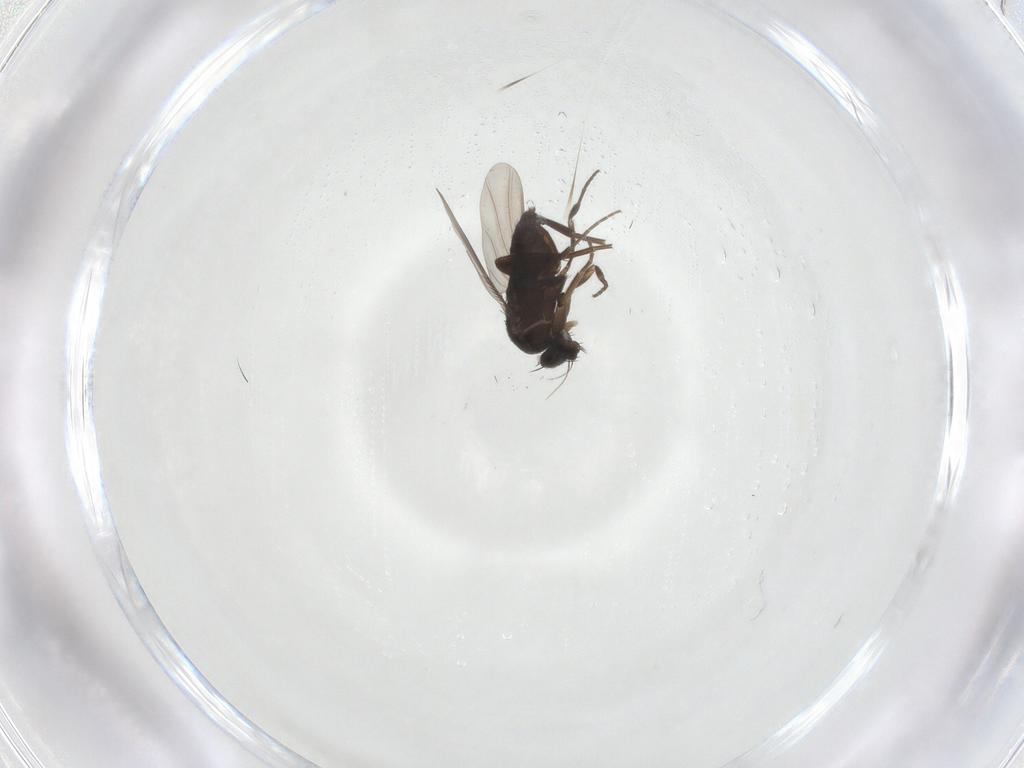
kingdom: Animalia
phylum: Arthropoda
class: Insecta
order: Diptera
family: Phoridae
